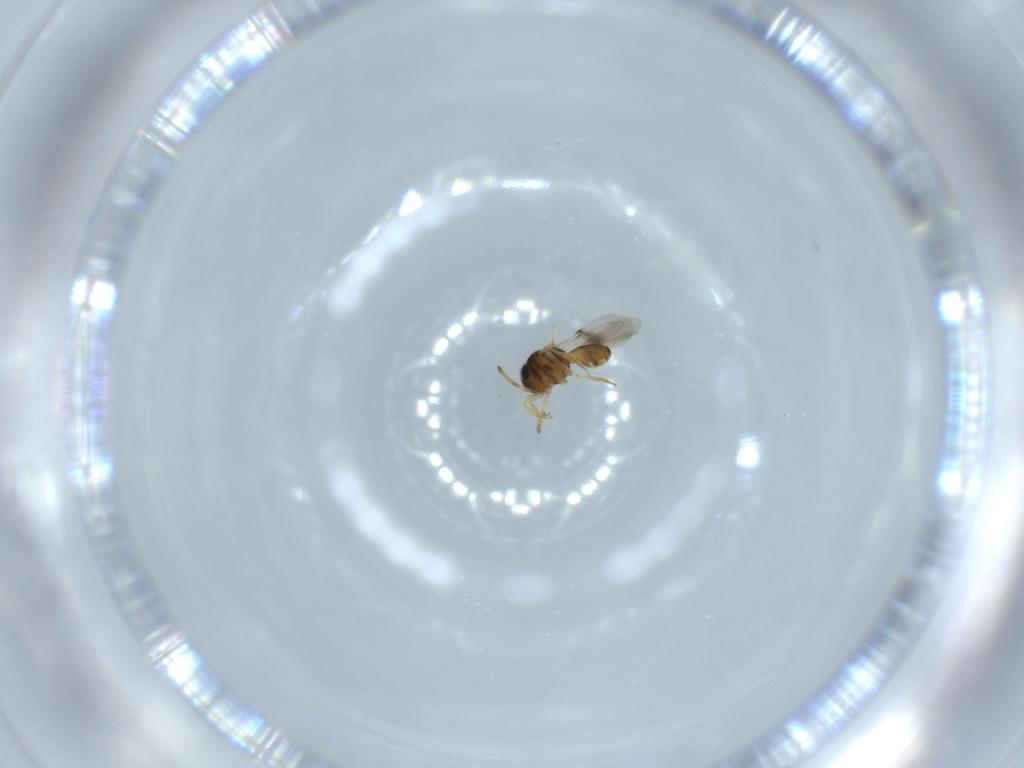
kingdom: Animalia
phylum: Arthropoda
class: Insecta
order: Hymenoptera
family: Scelionidae
